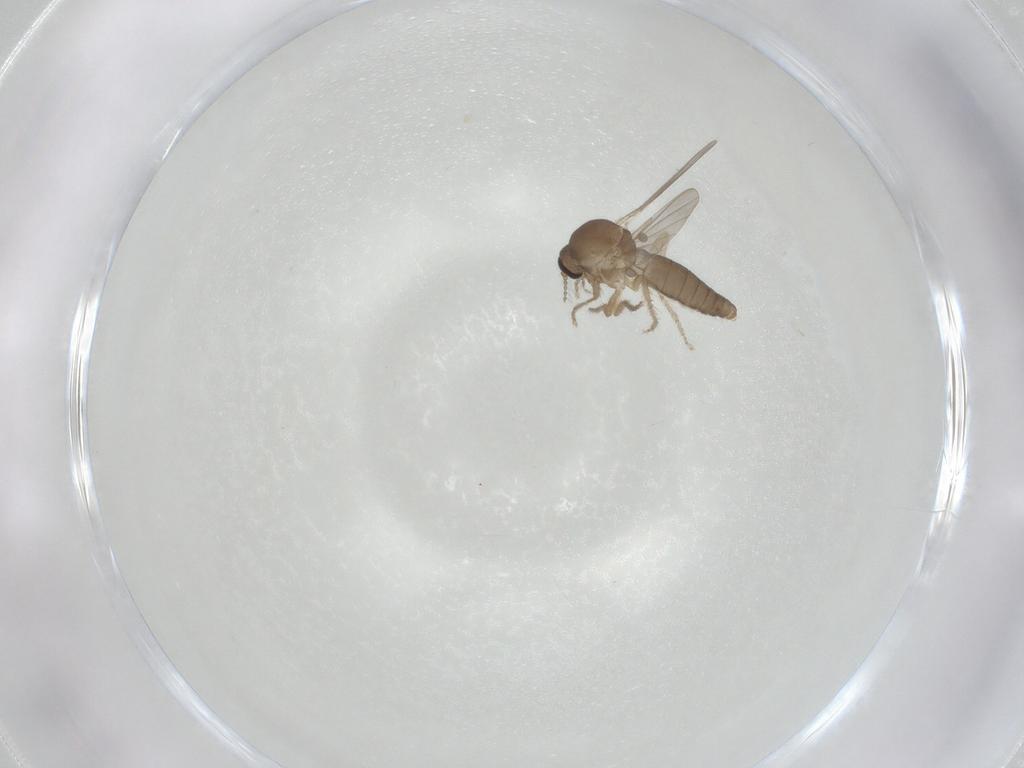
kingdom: Animalia
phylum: Arthropoda
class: Insecta
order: Diptera
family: Ceratopogonidae
